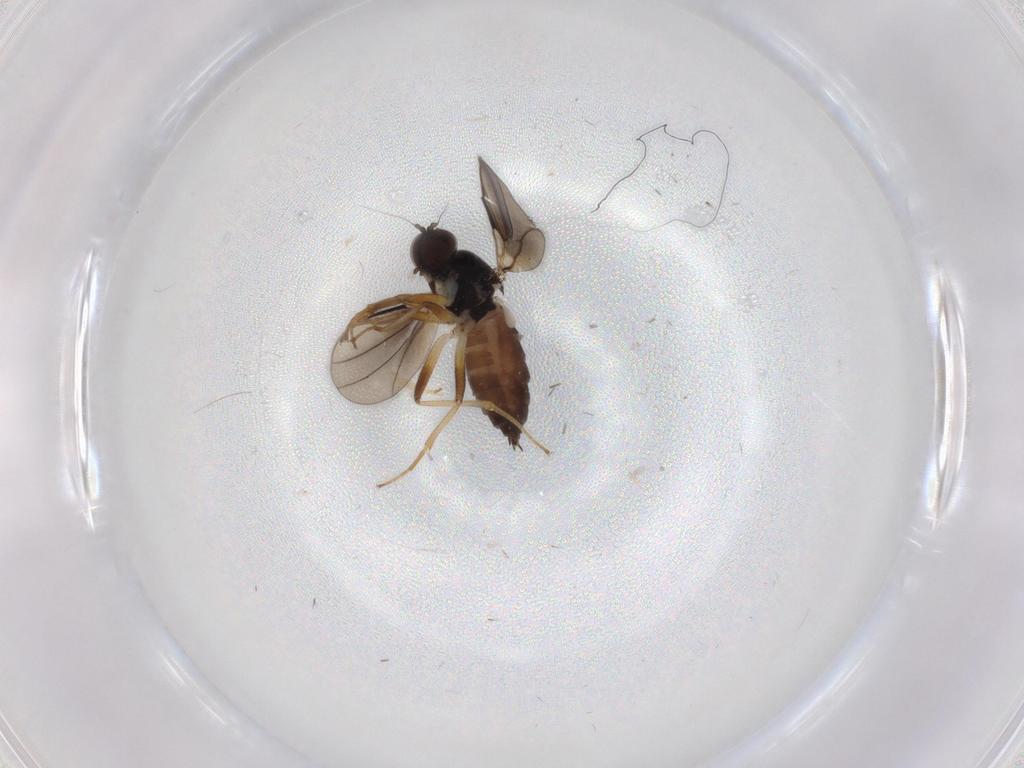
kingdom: Animalia
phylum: Arthropoda
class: Insecta
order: Diptera
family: Hybotidae
